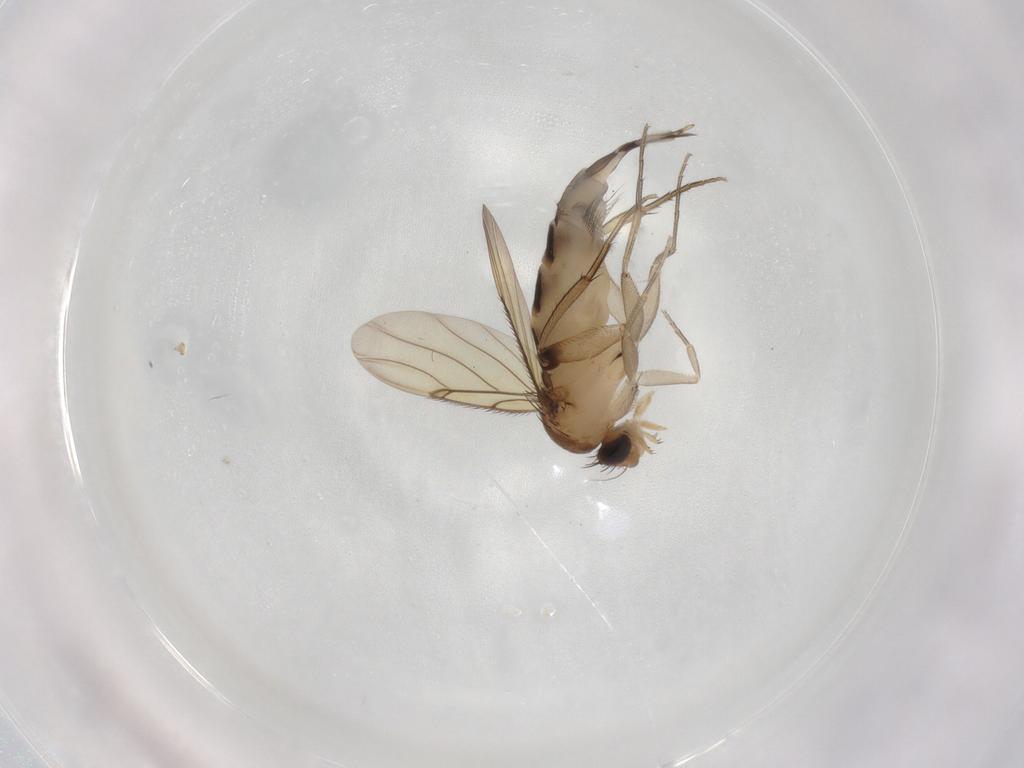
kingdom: Animalia
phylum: Arthropoda
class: Insecta
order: Diptera
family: Phoridae
